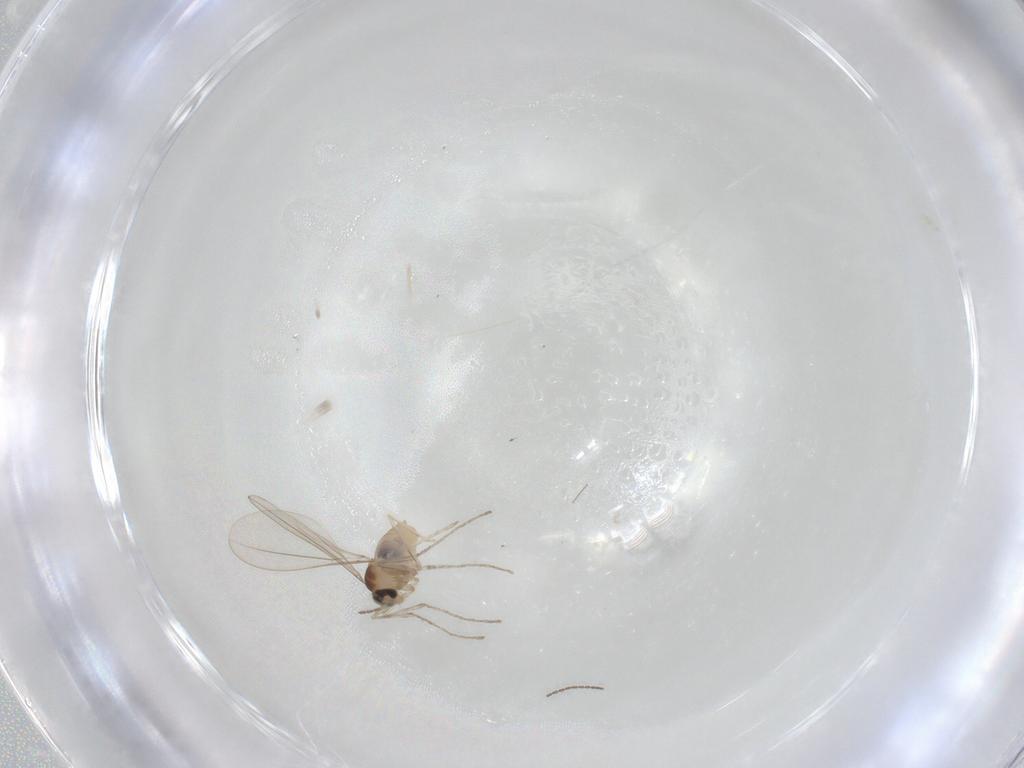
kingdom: Animalia
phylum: Arthropoda
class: Insecta
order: Diptera
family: Cecidomyiidae
